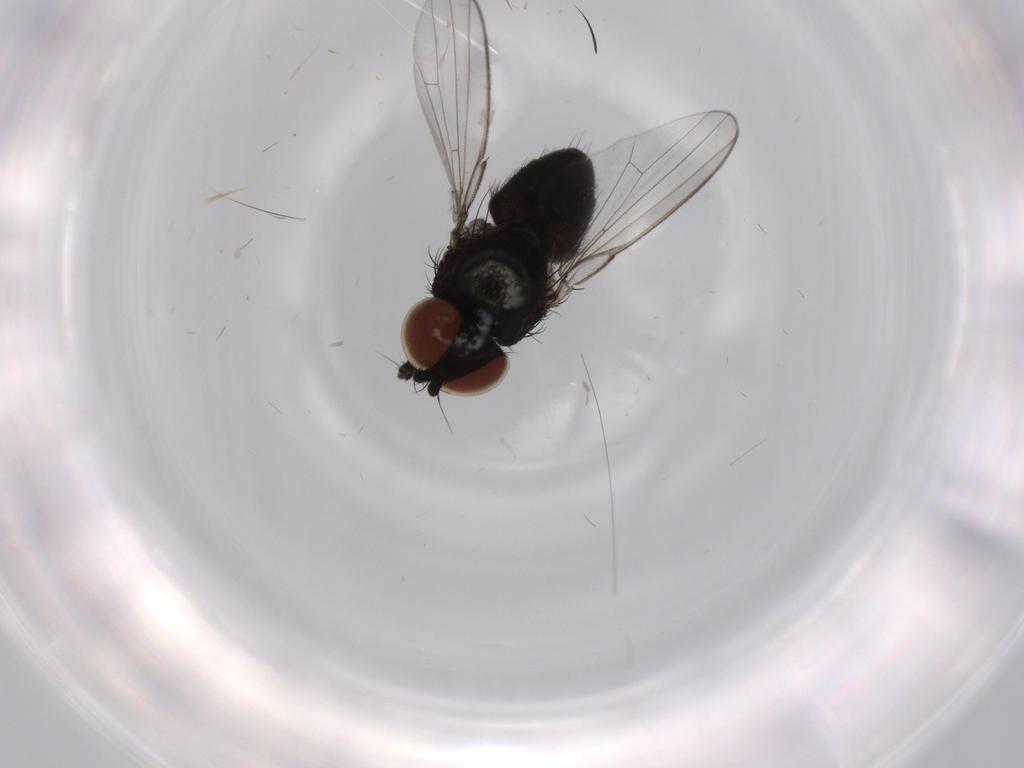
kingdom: Animalia
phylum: Arthropoda
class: Insecta
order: Diptera
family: Milichiidae
